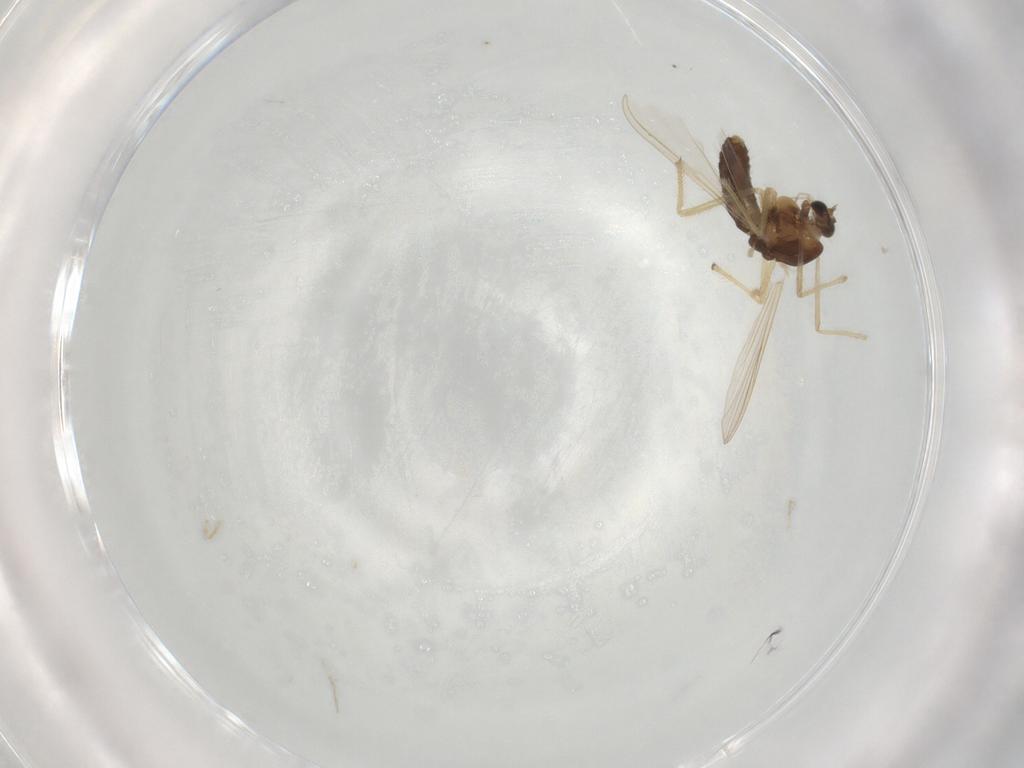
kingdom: Animalia
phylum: Arthropoda
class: Insecta
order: Diptera
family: Chironomidae
